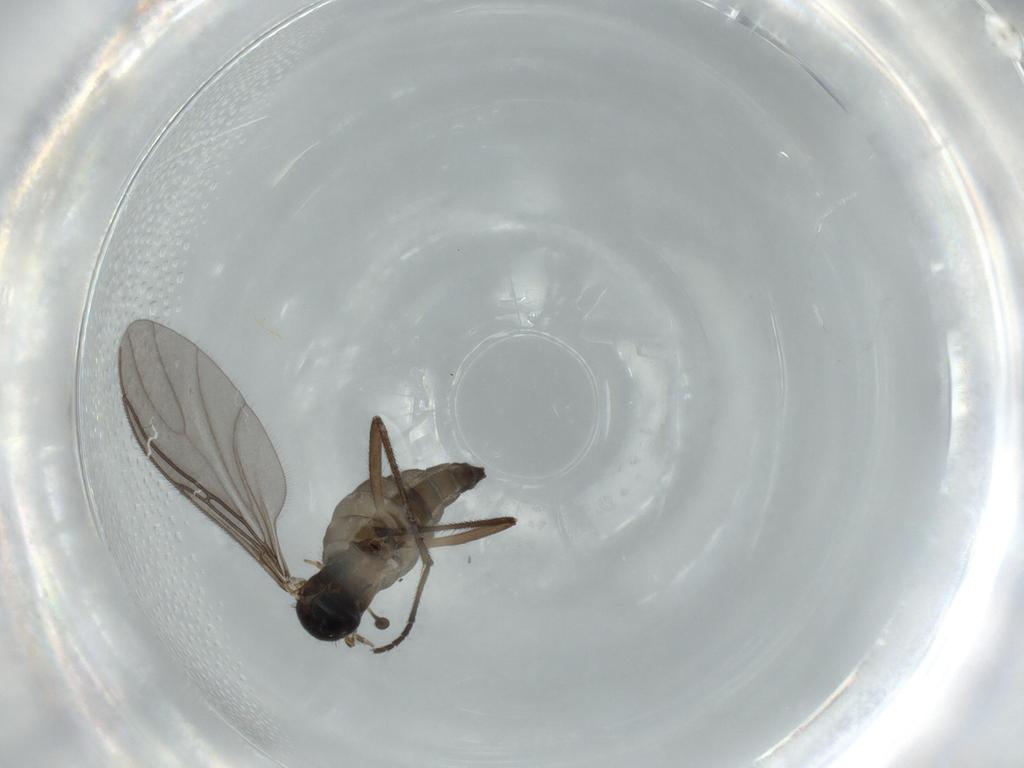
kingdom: Animalia
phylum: Arthropoda
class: Insecta
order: Diptera
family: Sciaridae
